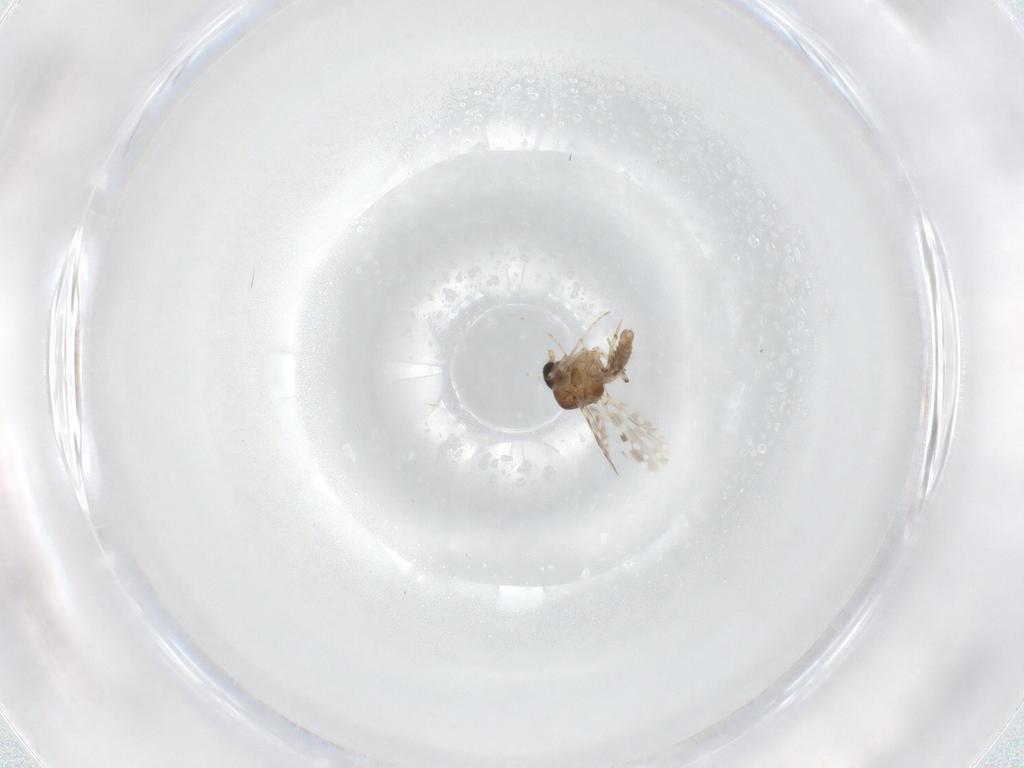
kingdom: Animalia
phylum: Arthropoda
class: Insecta
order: Diptera
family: Ceratopogonidae
